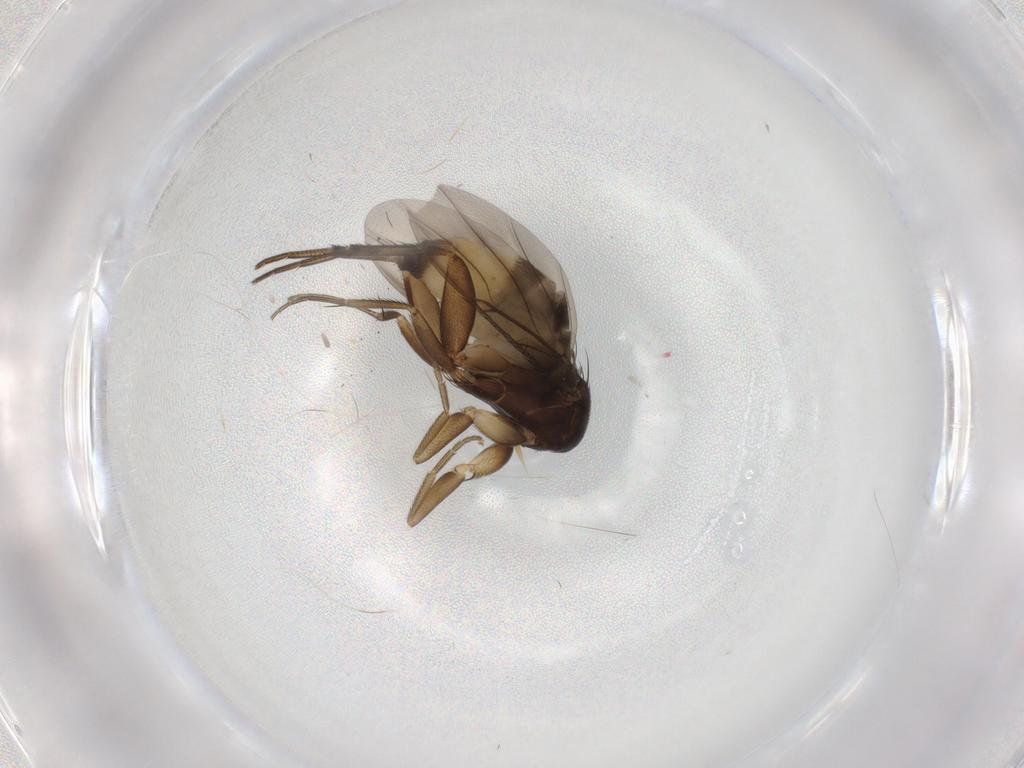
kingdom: Animalia
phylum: Arthropoda
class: Insecta
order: Diptera
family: Phoridae
